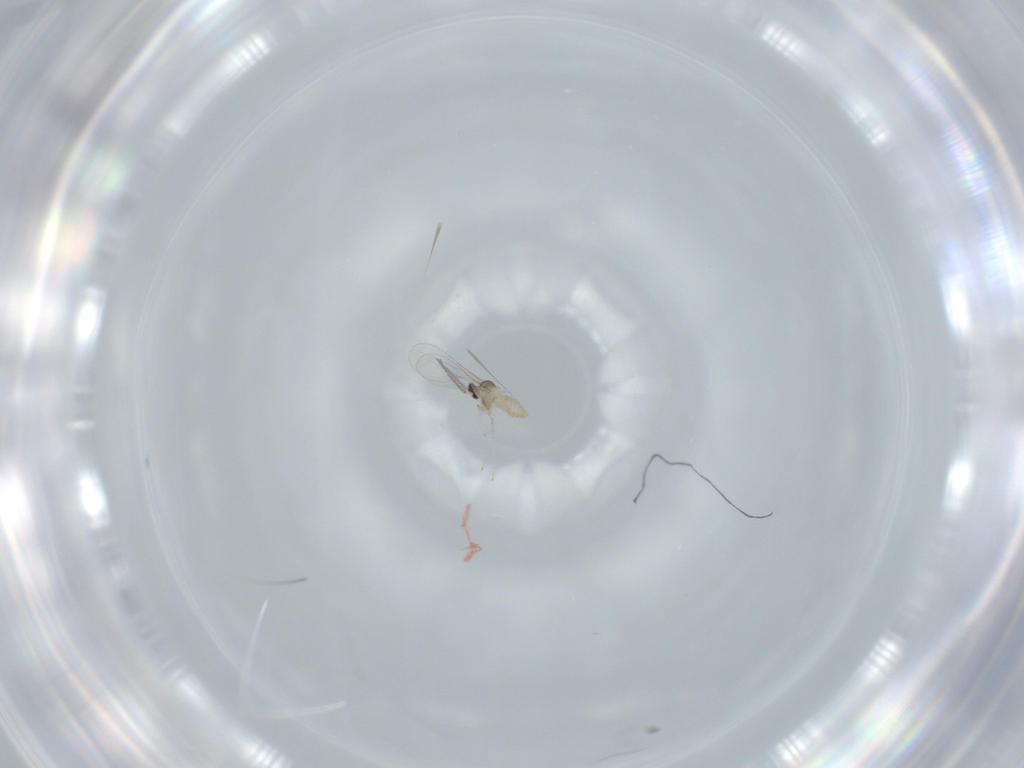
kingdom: Animalia
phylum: Arthropoda
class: Insecta
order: Diptera
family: Cecidomyiidae
